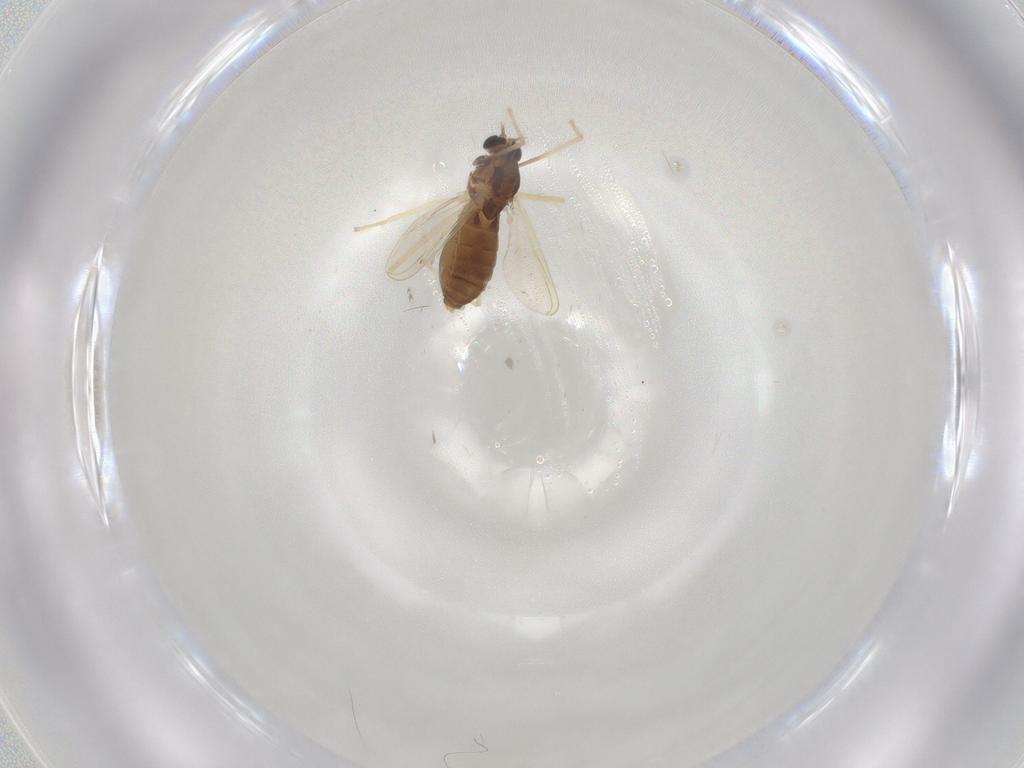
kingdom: Animalia
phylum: Arthropoda
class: Insecta
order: Diptera
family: Chironomidae
